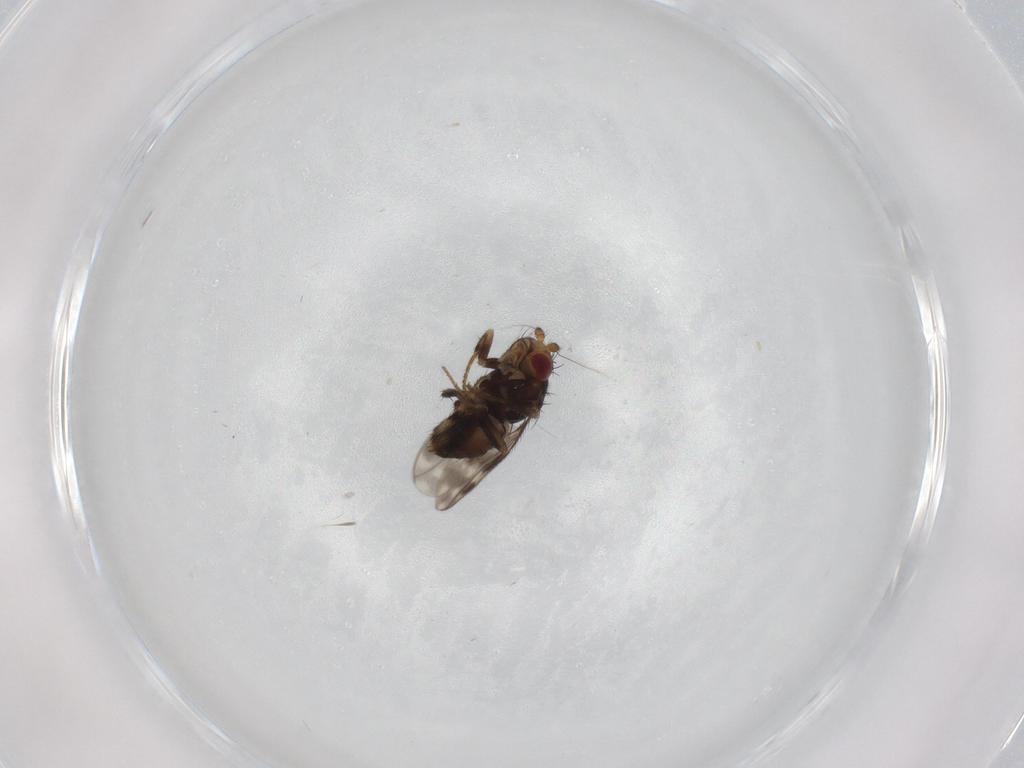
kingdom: Animalia
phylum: Arthropoda
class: Insecta
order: Diptera
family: Sphaeroceridae
